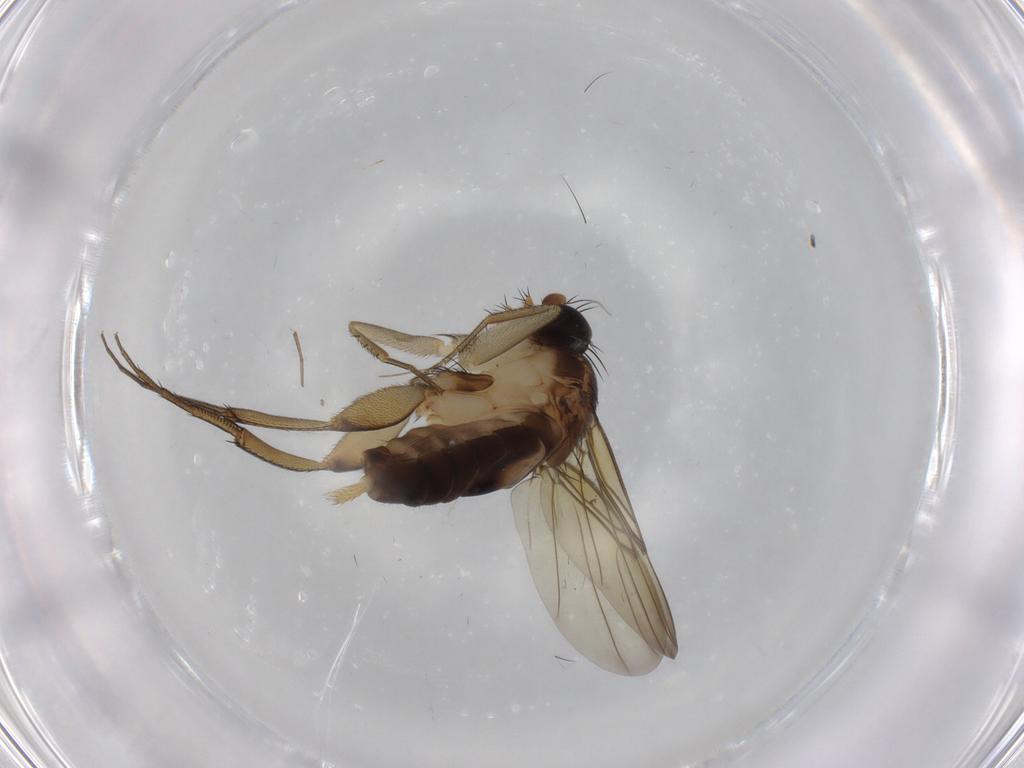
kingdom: Animalia
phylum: Arthropoda
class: Insecta
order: Diptera
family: Psychodidae
